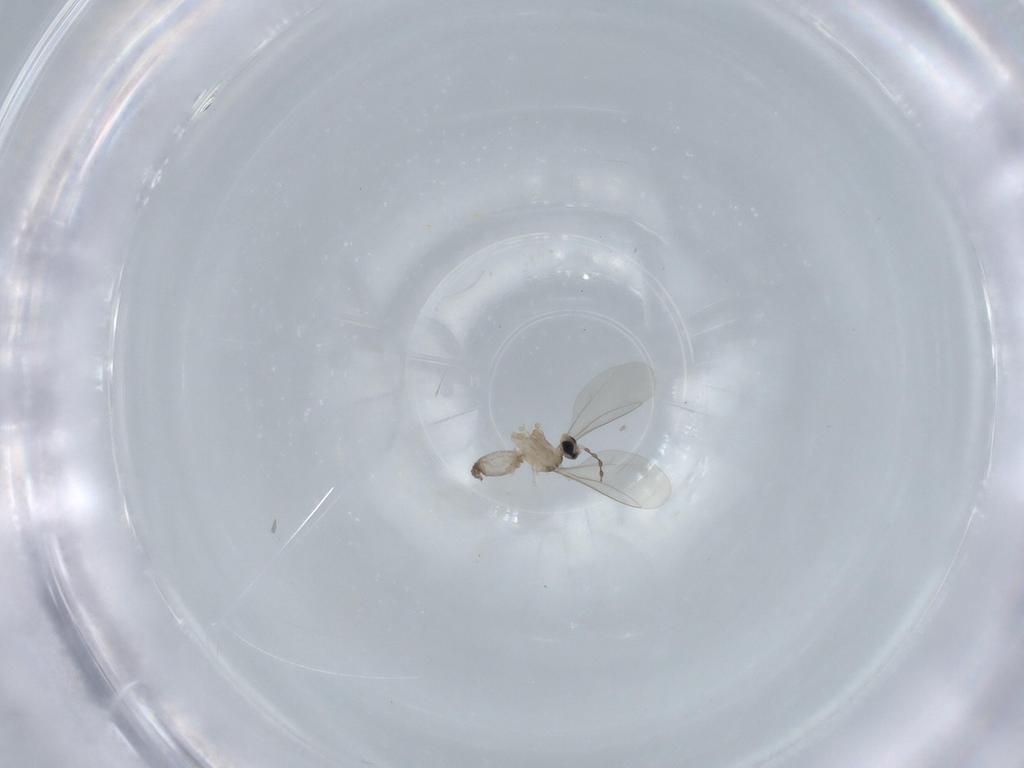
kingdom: Animalia
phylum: Arthropoda
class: Insecta
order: Diptera
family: Cecidomyiidae
